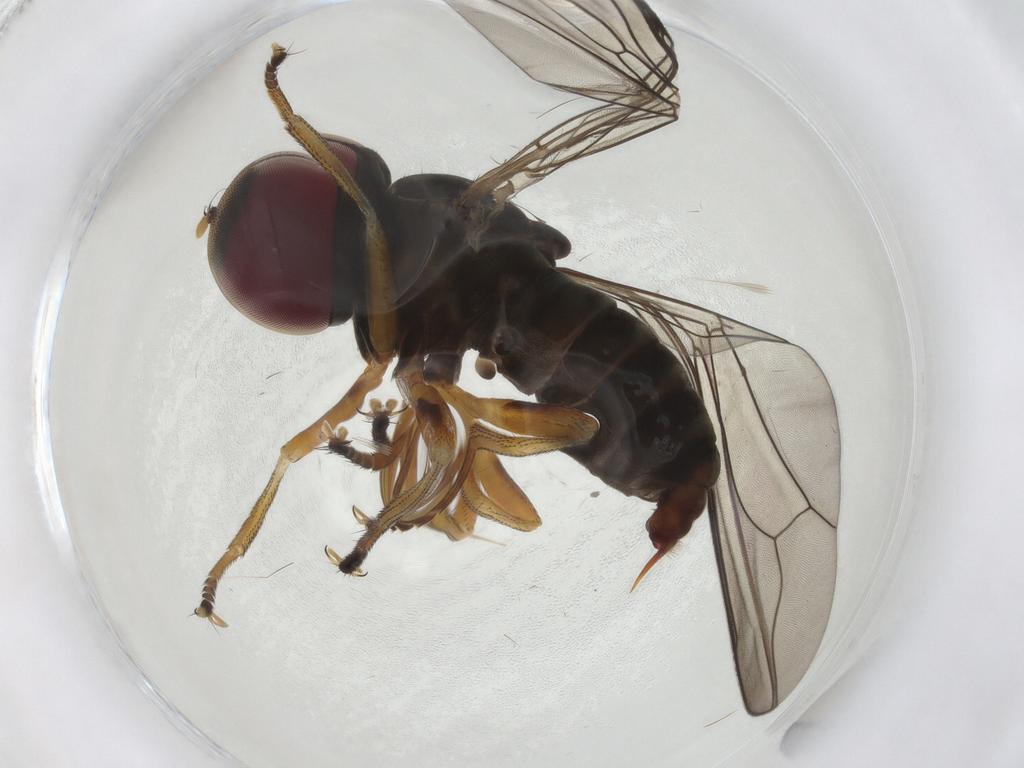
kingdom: Animalia
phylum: Arthropoda
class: Insecta
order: Diptera
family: Pipunculidae
